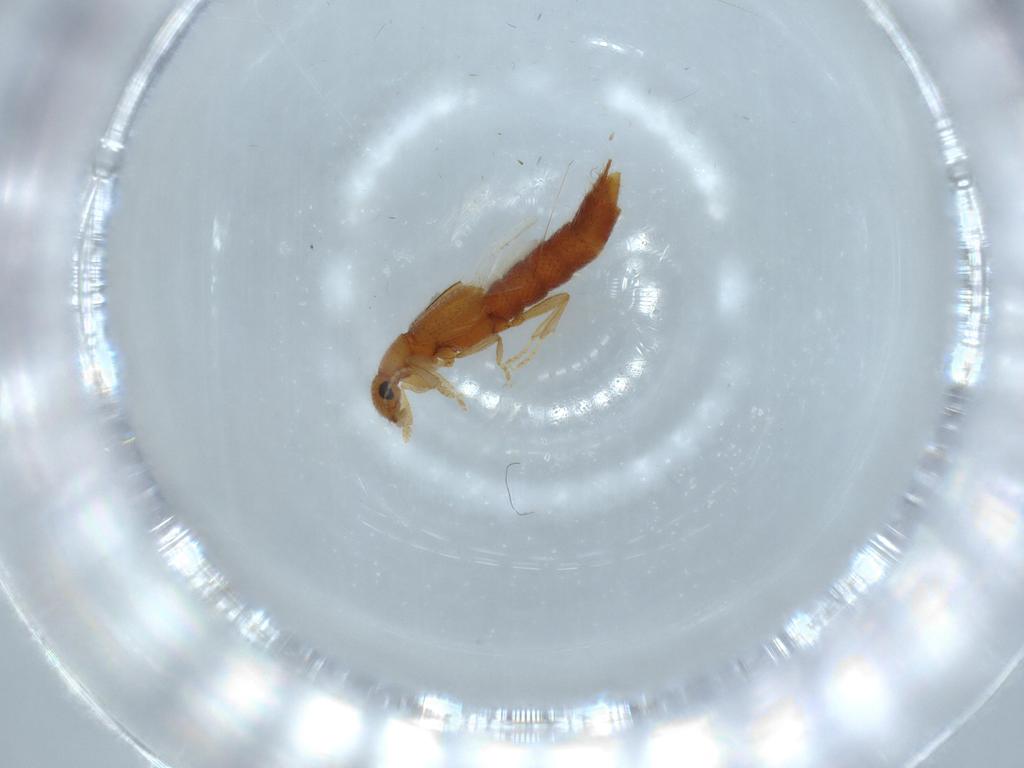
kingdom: Animalia
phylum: Arthropoda
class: Insecta
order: Coleoptera
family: Staphylinidae
